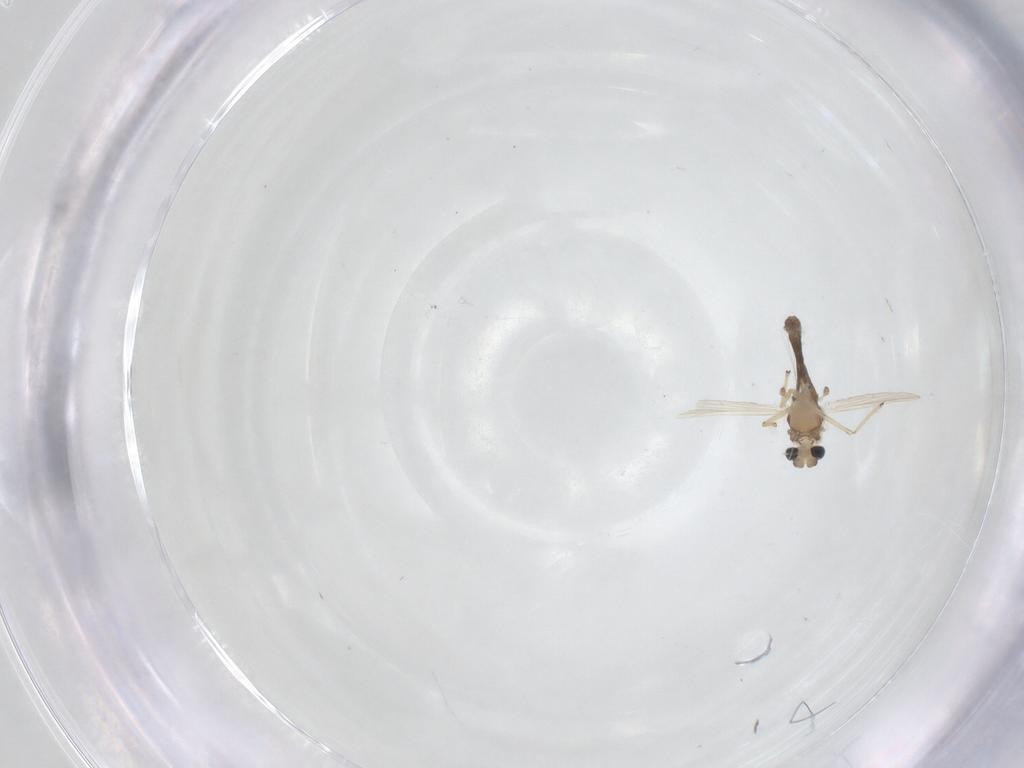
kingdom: Animalia
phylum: Arthropoda
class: Insecta
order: Diptera
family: Chironomidae
